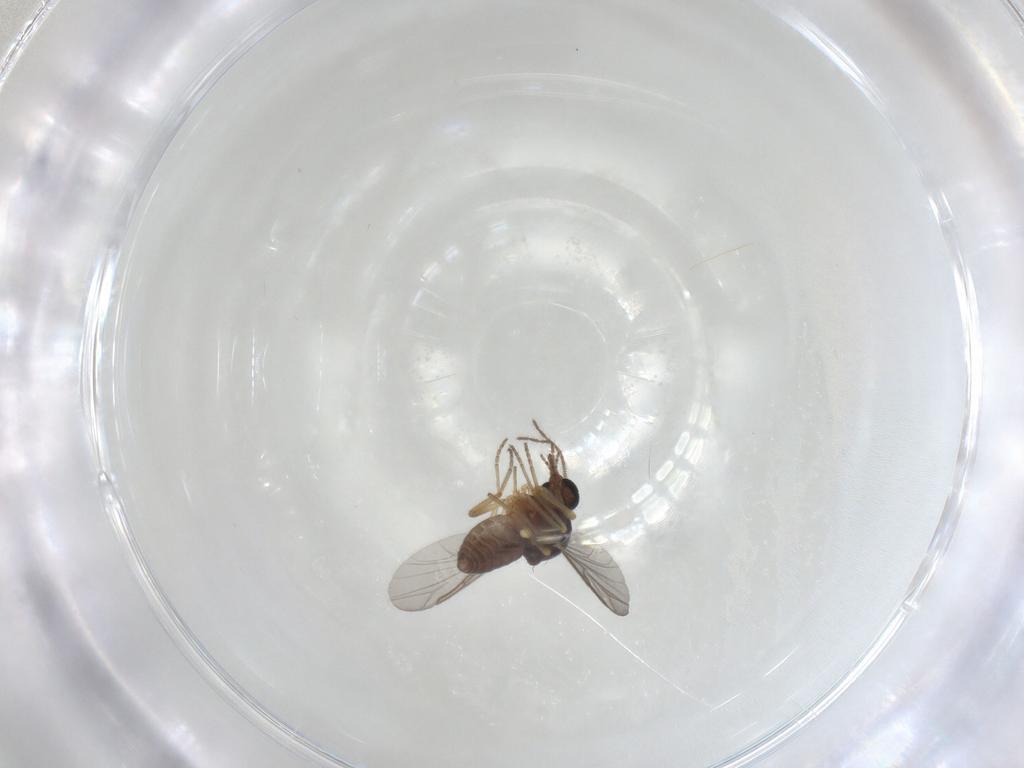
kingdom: Animalia
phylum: Arthropoda
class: Insecta
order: Diptera
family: Ceratopogonidae
